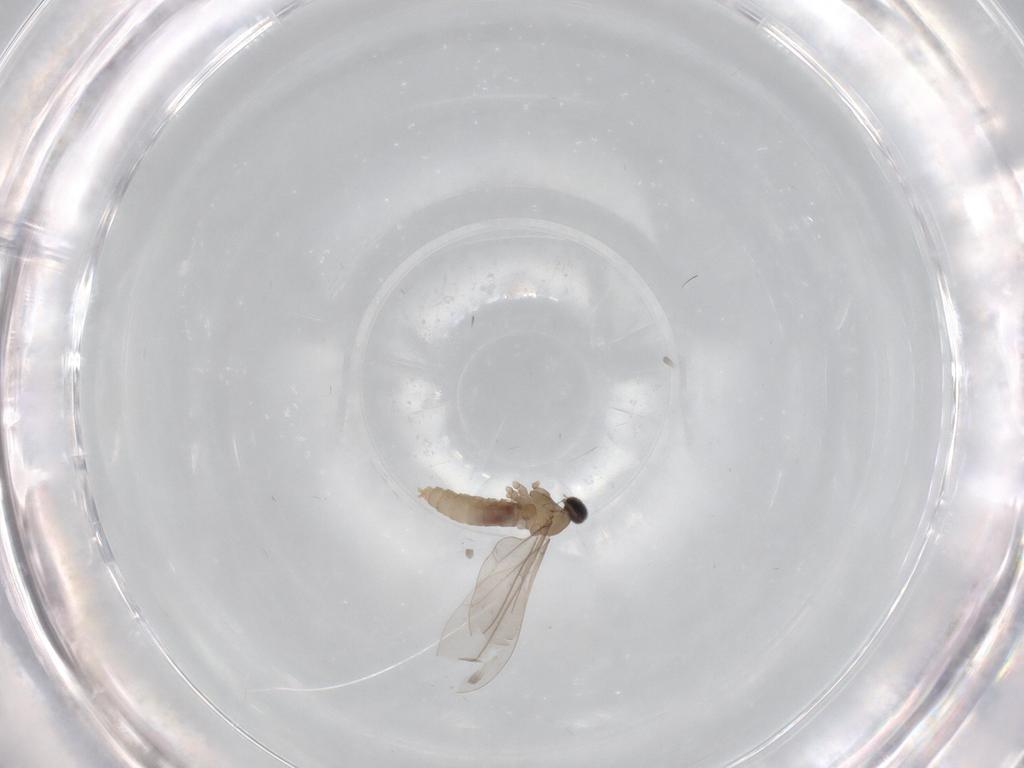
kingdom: Animalia
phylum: Arthropoda
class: Insecta
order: Diptera
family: Cecidomyiidae
